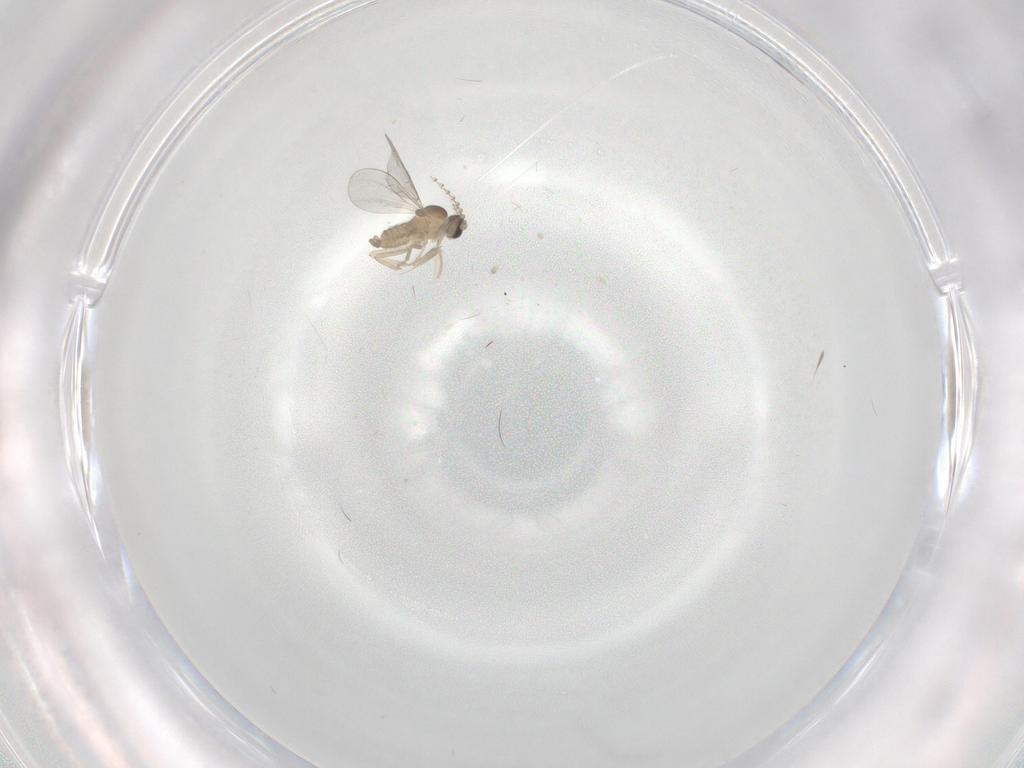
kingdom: Animalia
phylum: Arthropoda
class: Insecta
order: Diptera
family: Cecidomyiidae
